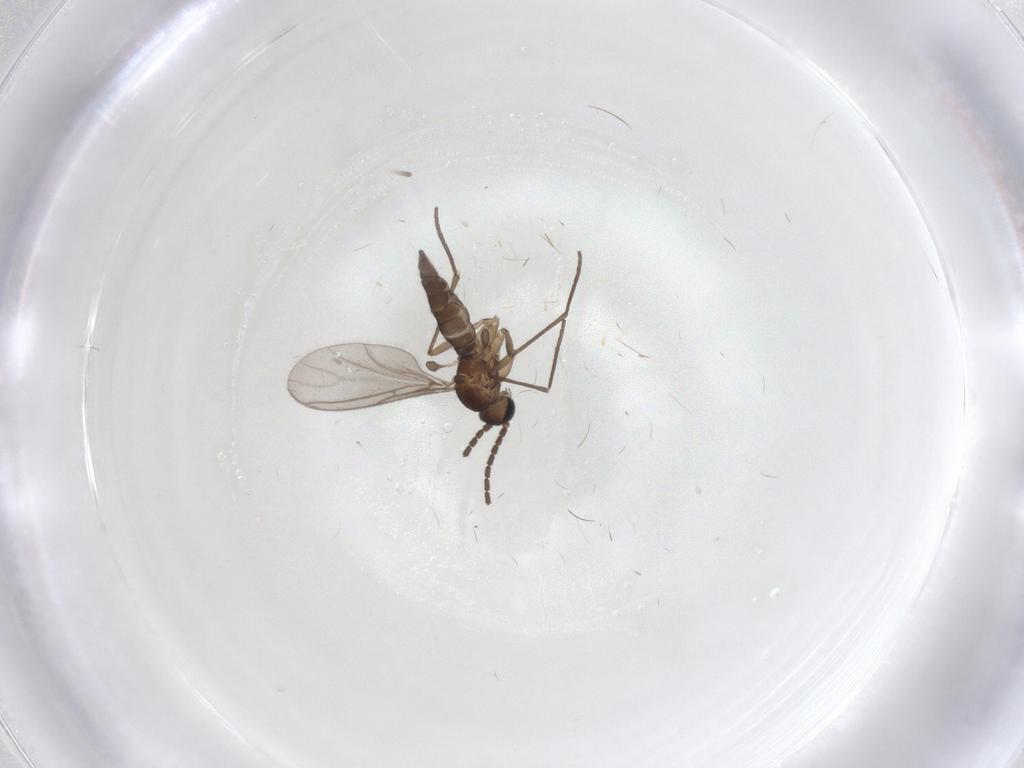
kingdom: Animalia
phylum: Arthropoda
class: Insecta
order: Diptera
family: Sciaridae
